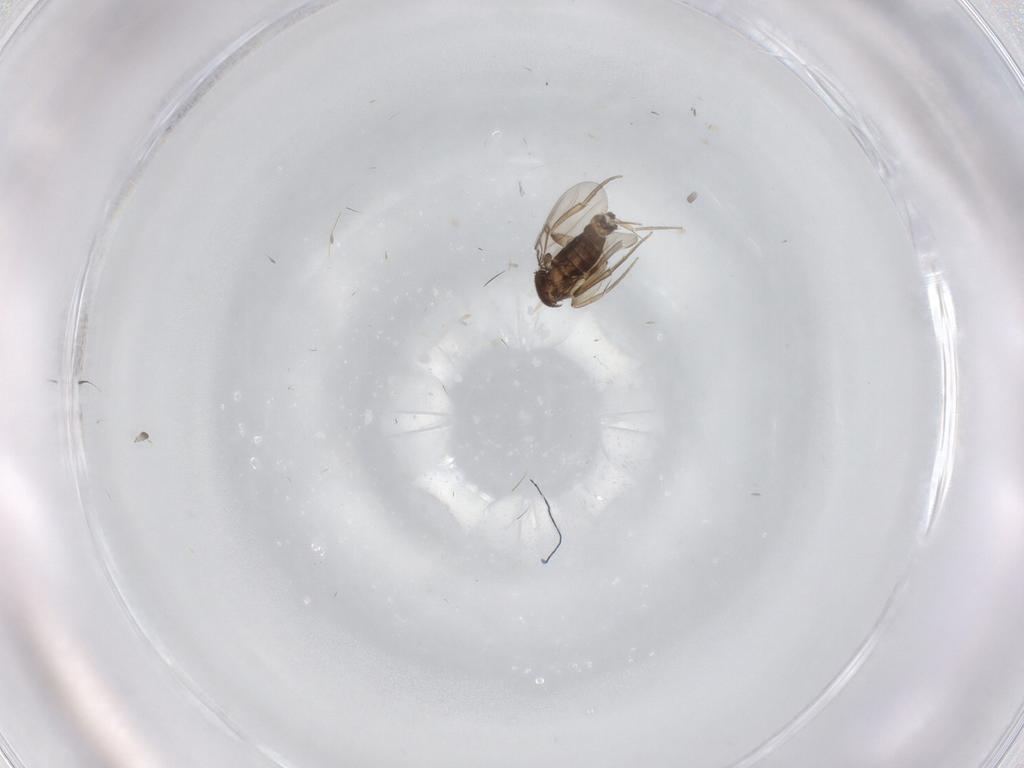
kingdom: Animalia
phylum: Arthropoda
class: Insecta
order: Diptera
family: Phoridae
